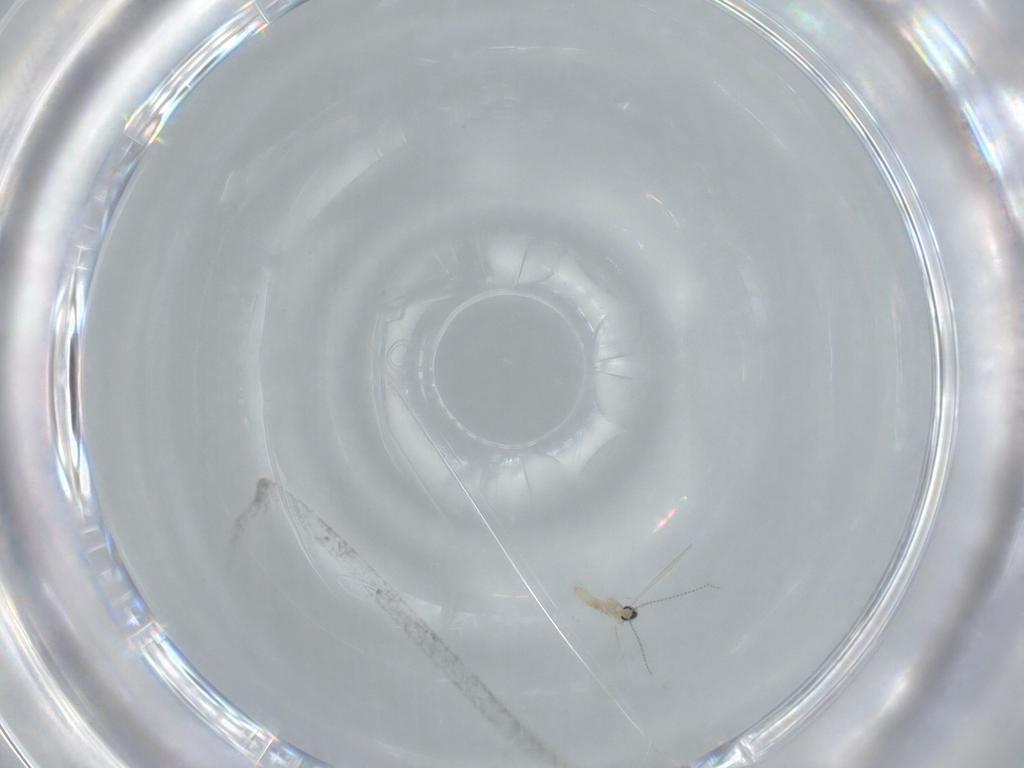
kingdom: Animalia
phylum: Arthropoda
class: Insecta
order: Diptera
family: Cecidomyiidae
